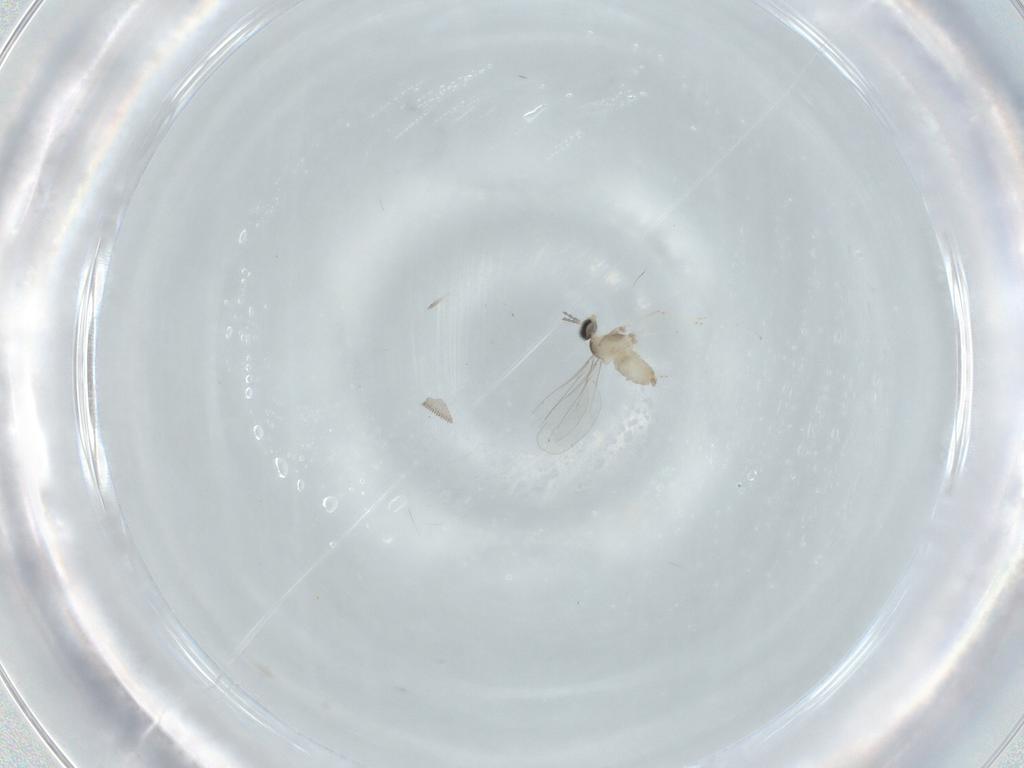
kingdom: Animalia
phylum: Arthropoda
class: Insecta
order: Diptera
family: Cecidomyiidae
